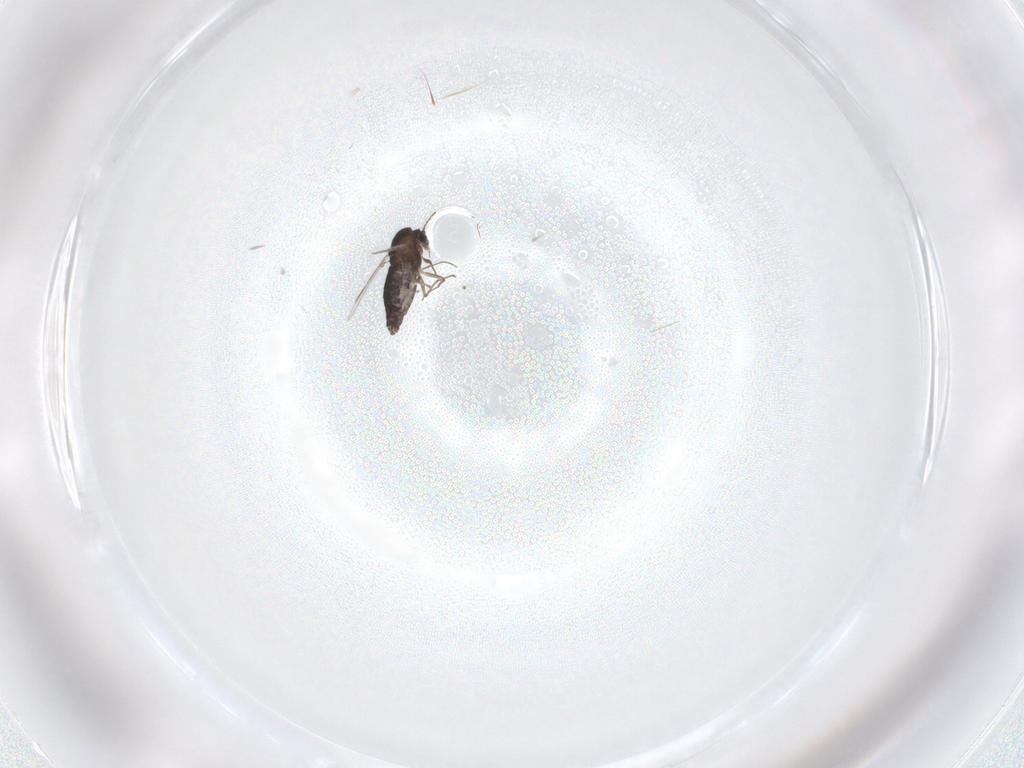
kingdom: Animalia
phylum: Arthropoda
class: Insecta
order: Diptera
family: Chironomidae
